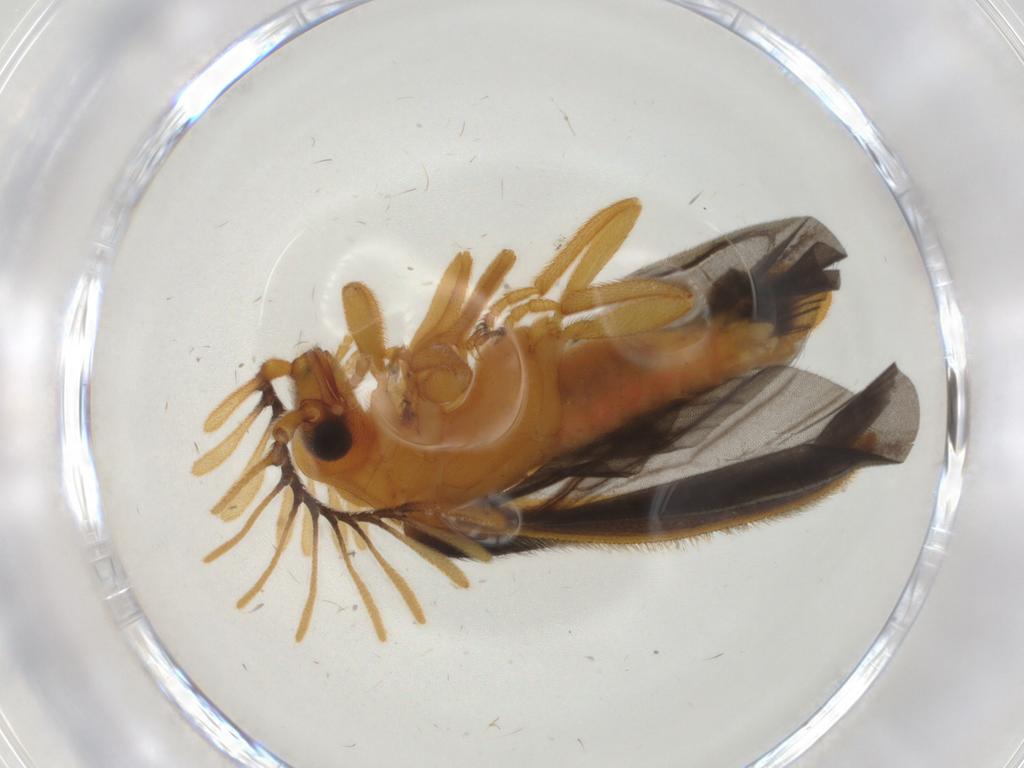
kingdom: Animalia
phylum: Arthropoda
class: Insecta
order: Coleoptera
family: Lampyridae
